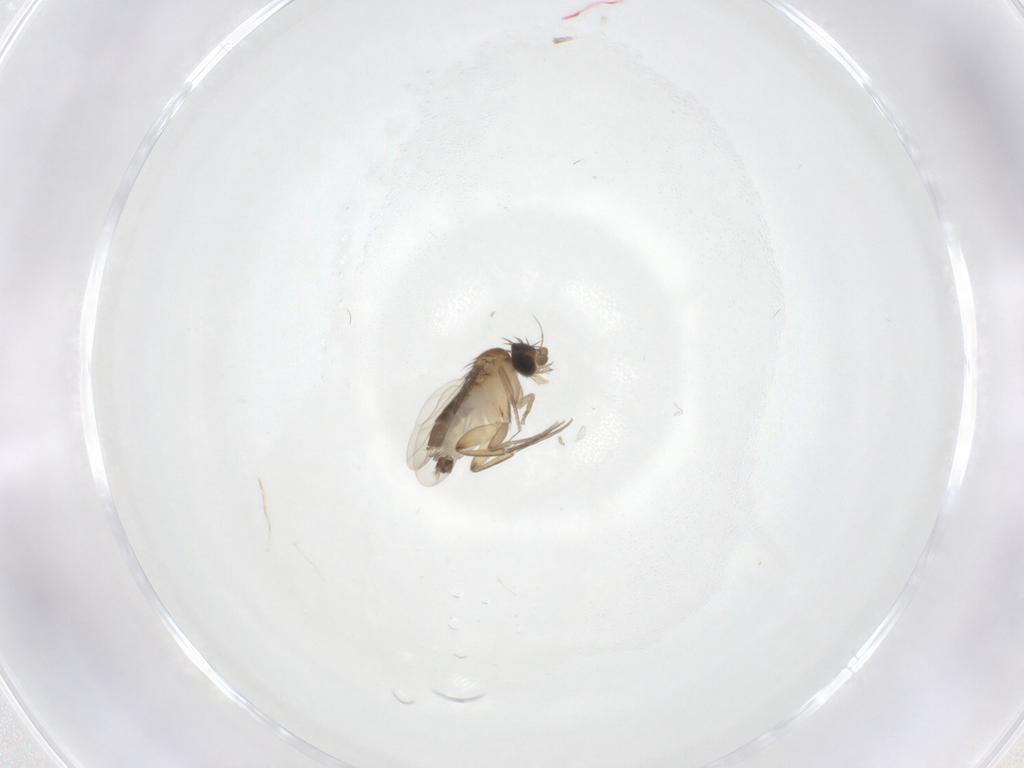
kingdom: Animalia
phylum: Arthropoda
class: Insecta
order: Diptera
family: Phoridae
